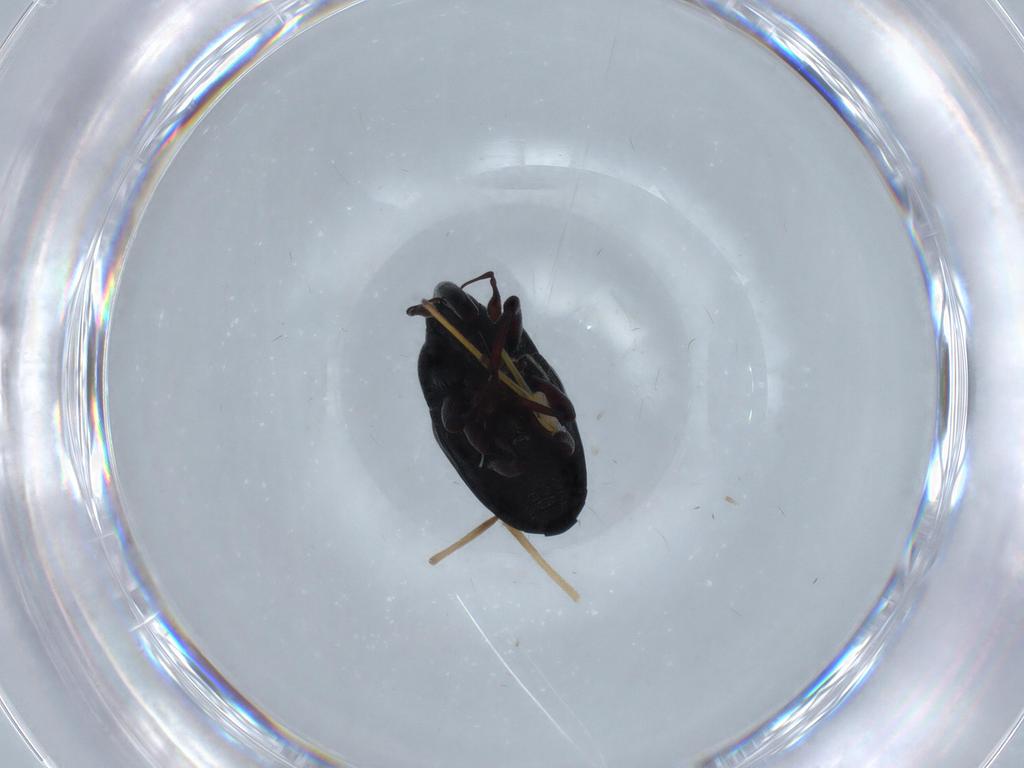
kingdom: Animalia
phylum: Arthropoda
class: Insecta
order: Coleoptera
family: Curculionidae
